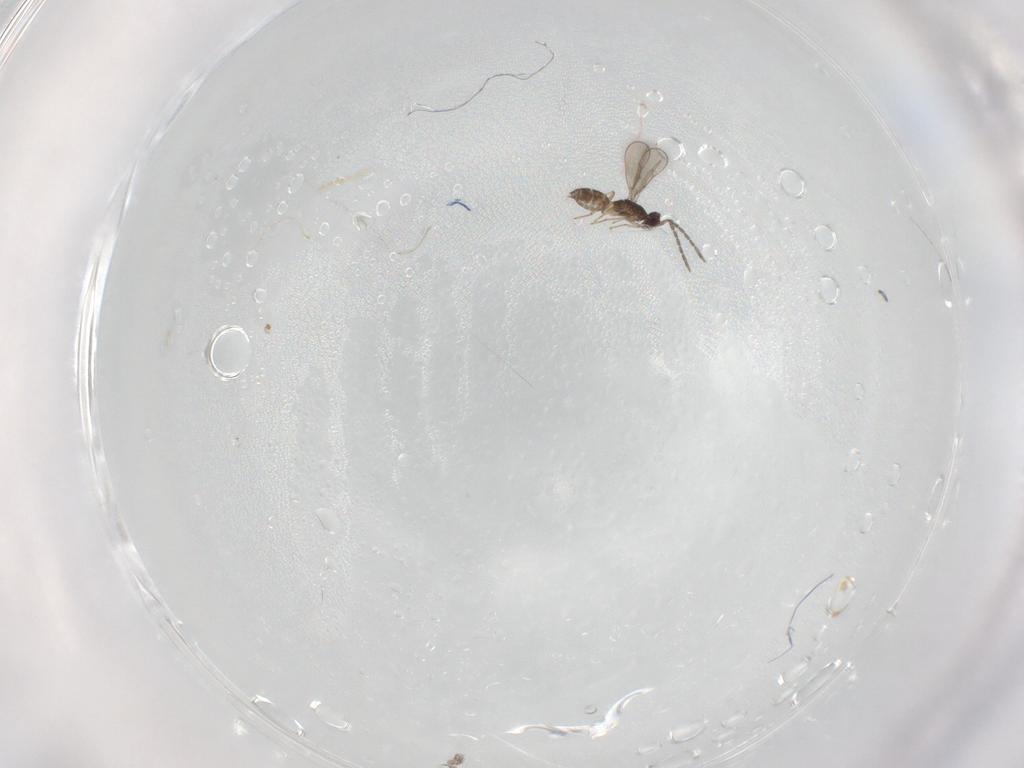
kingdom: Animalia
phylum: Arthropoda
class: Insecta
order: Hymenoptera
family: Eulophidae
